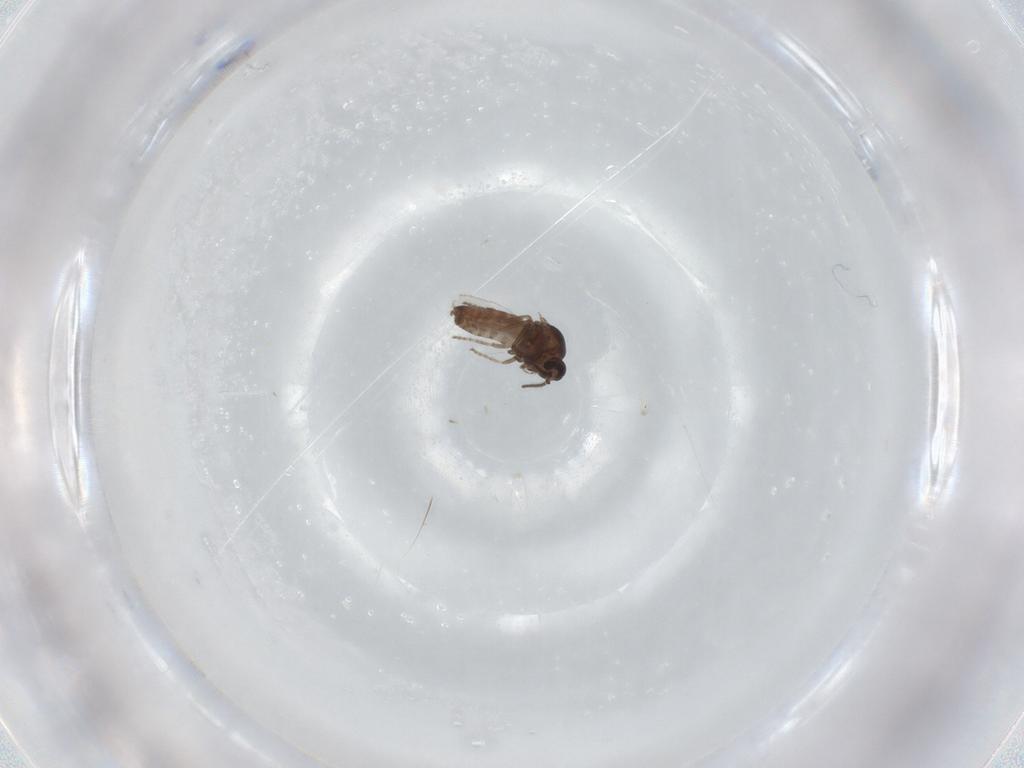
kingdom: Animalia
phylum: Arthropoda
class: Insecta
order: Diptera
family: Ceratopogonidae
